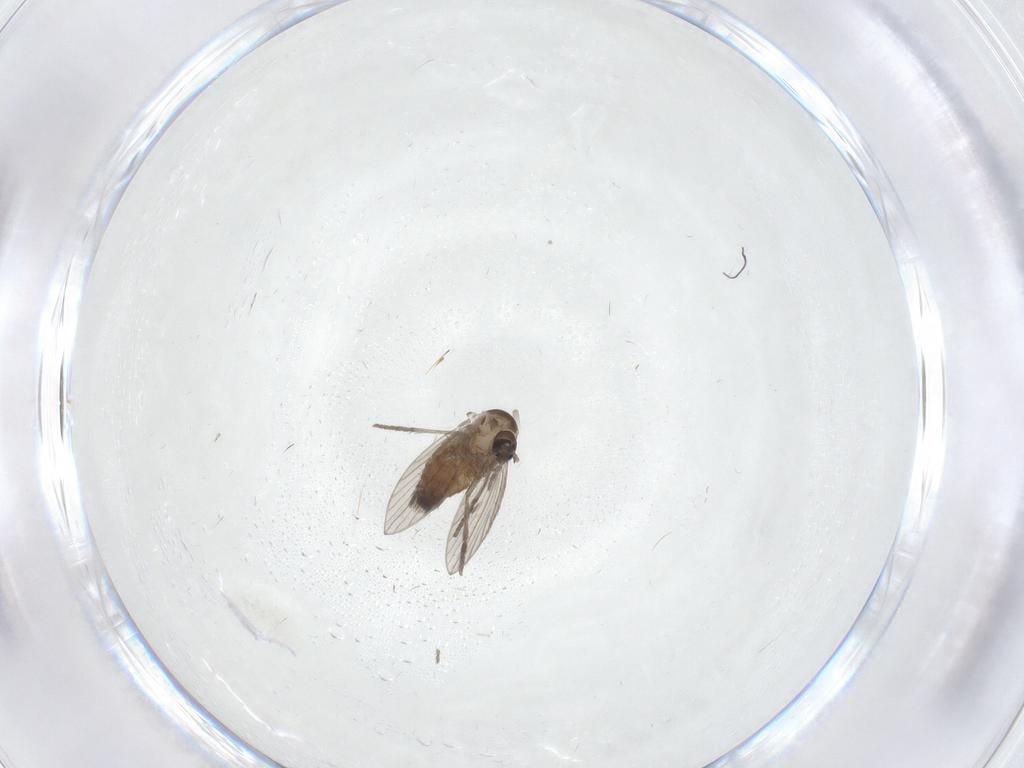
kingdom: Animalia
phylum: Arthropoda
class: Insecta
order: Diptera
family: Psychodidae
